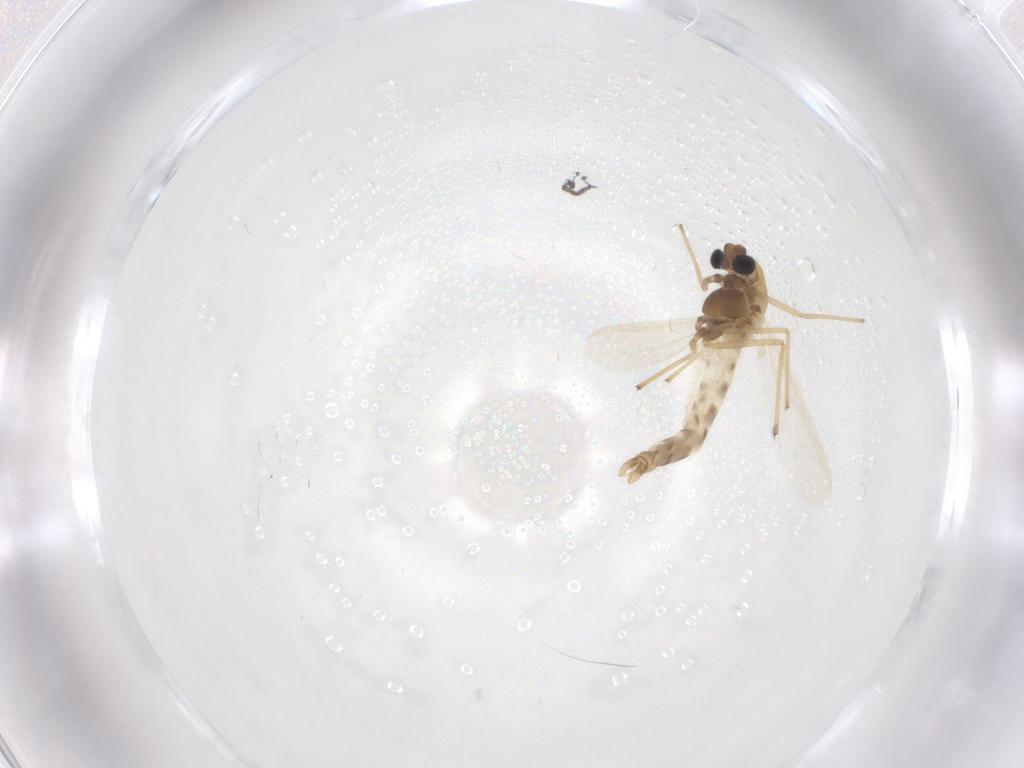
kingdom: Animalia
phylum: Arthropoda
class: Insecta
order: Diptera
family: Chironomidae
